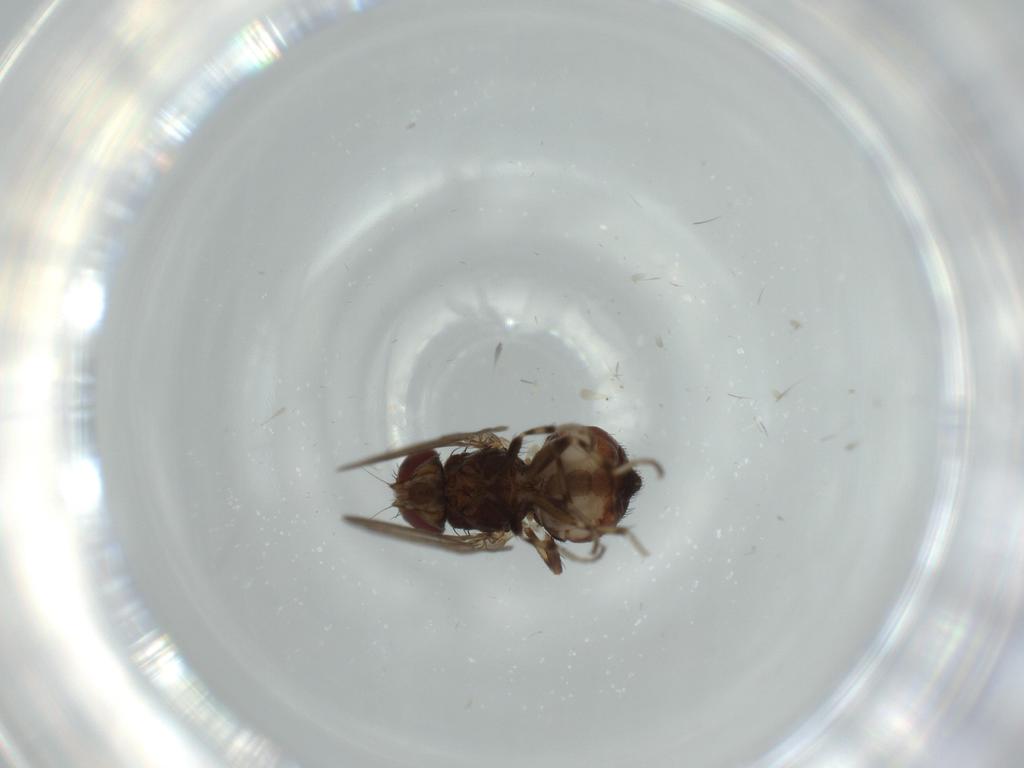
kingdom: Animalia
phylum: Arthropoda
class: Insecta
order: Diptera
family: Heleomyzidae
